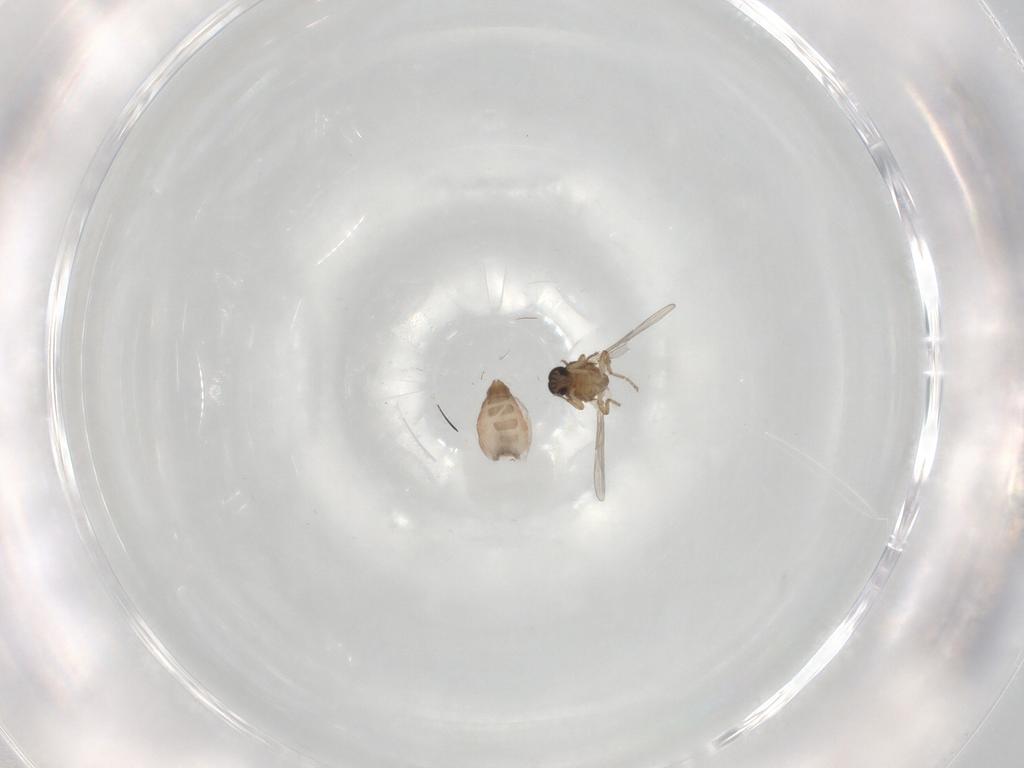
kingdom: Animalia
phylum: Arthropoda
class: Insecta
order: Diptera
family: Ceratopogonidae
